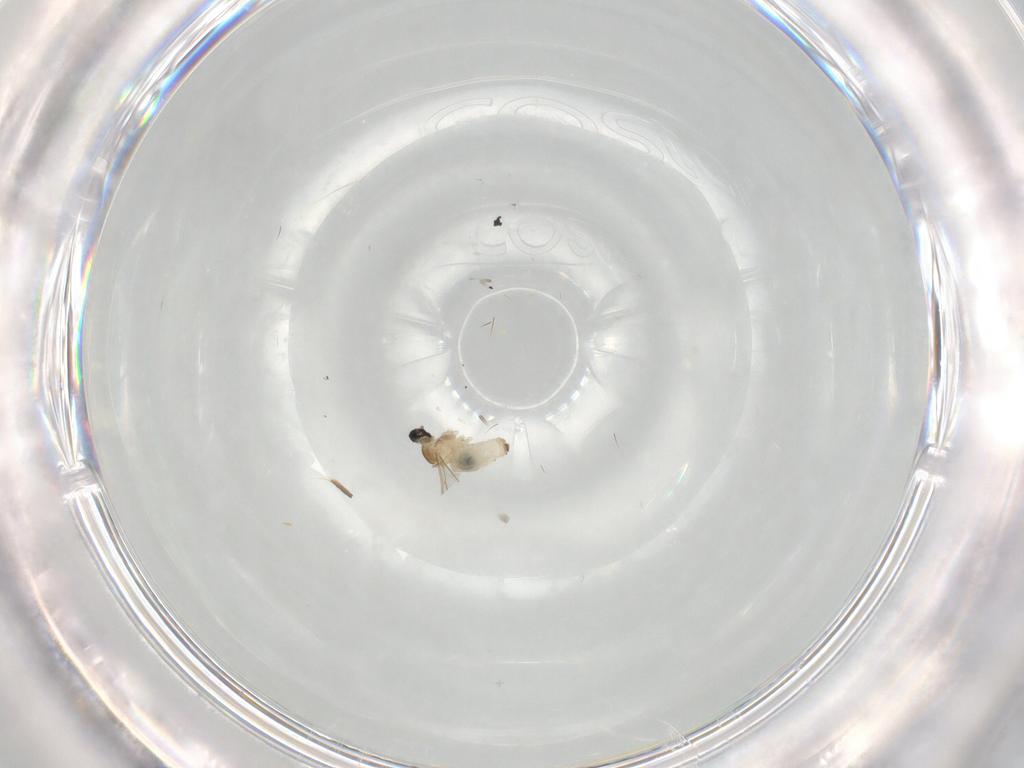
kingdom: Animalia
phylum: Arthropoda
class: Insecta
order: Diptera
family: Cecidomyiidae
